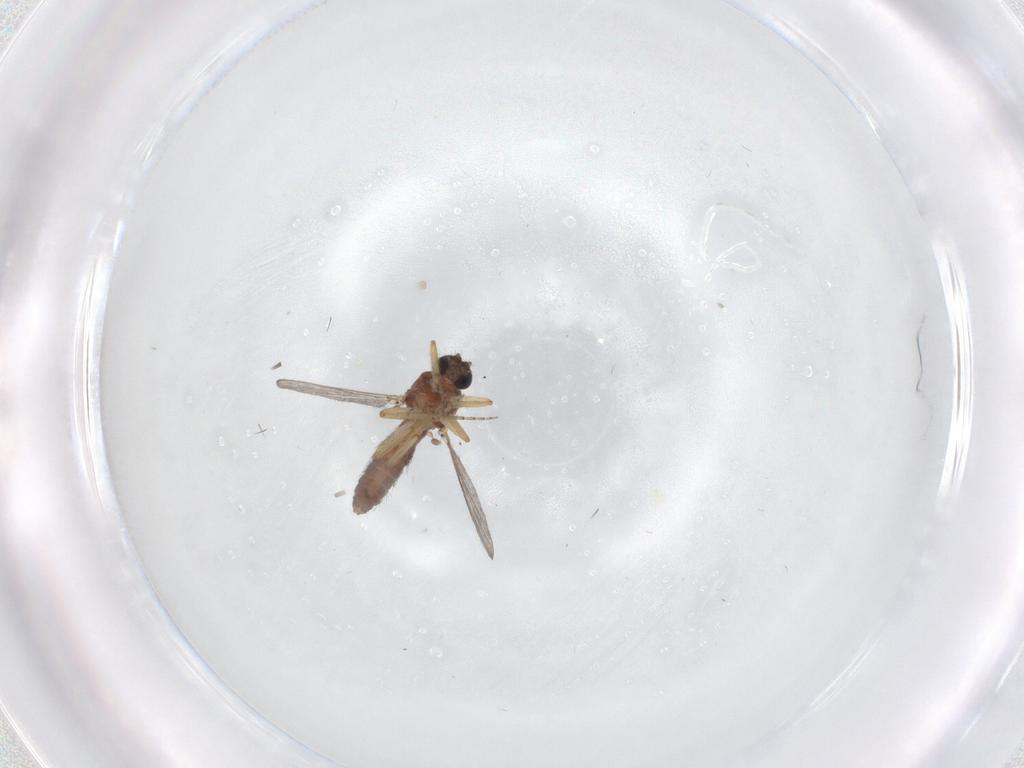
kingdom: Animalia
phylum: Arthropoda
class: Insecta
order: Diptera
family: Cecidomyiidae
